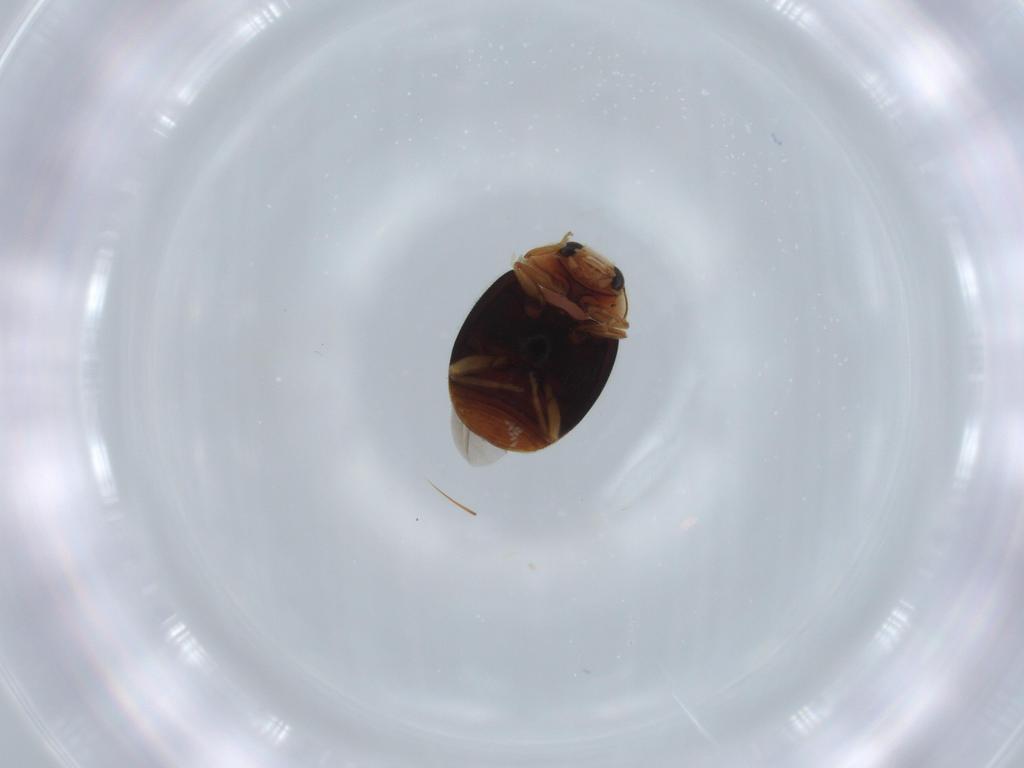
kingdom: Animalia
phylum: Arthropoda
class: Insecta
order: Coleoptera
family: Coccinellidae
